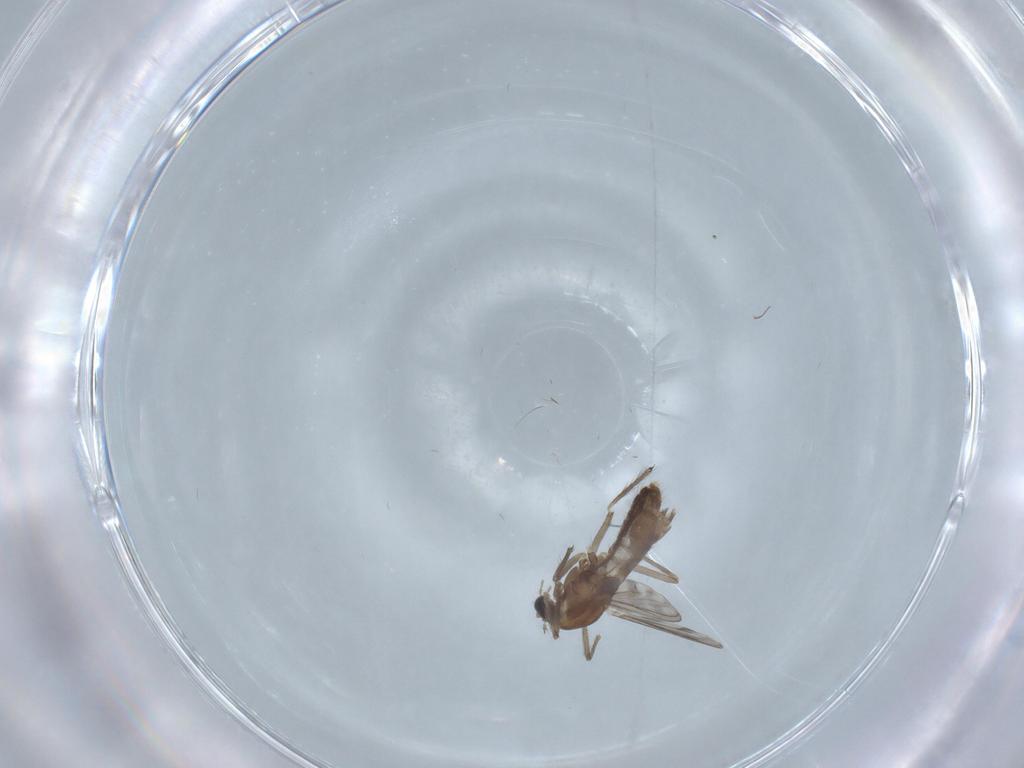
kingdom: Animalia
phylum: Arthropoda
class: Insecta
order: Diptera
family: Chironomidae
